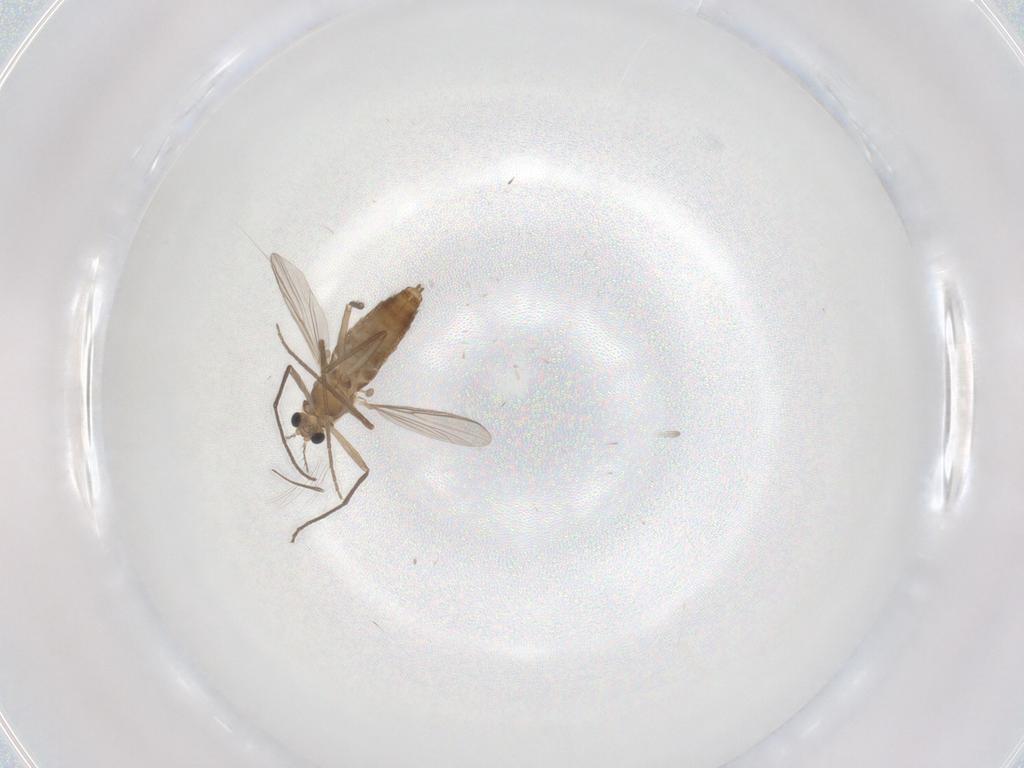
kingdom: Animalia
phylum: Arthropoda
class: Insecta
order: Diptera
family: Chironomidae
